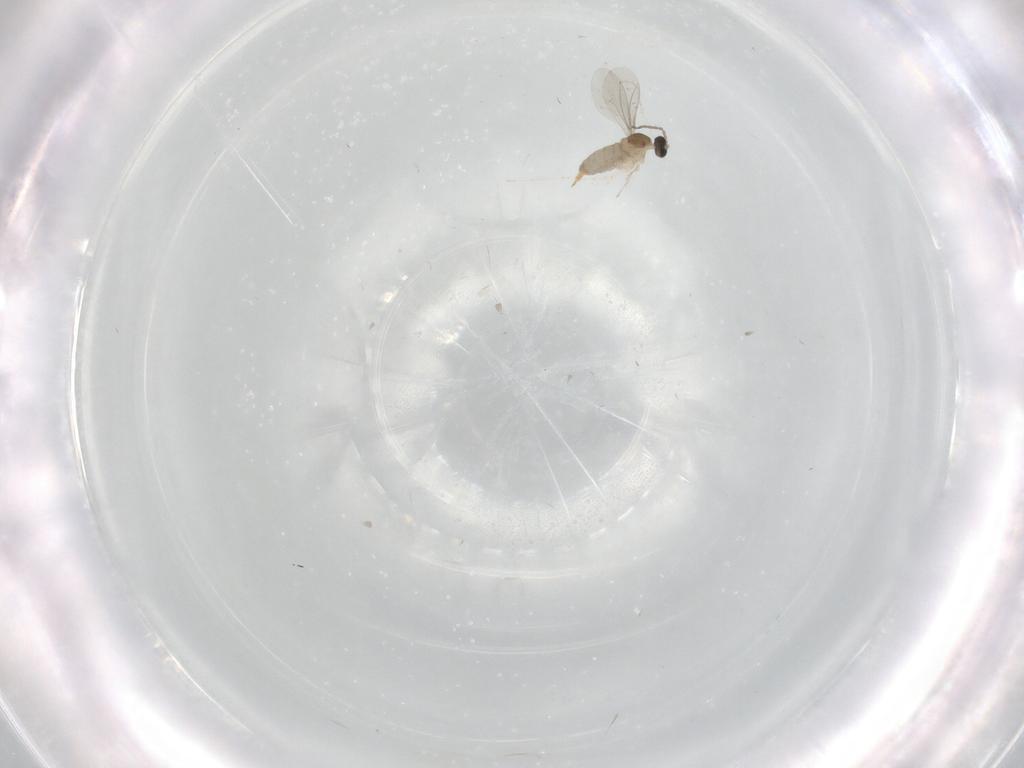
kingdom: Animalia
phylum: Arthropoda
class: Insecta
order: Diptera
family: Cecidomyiidae
